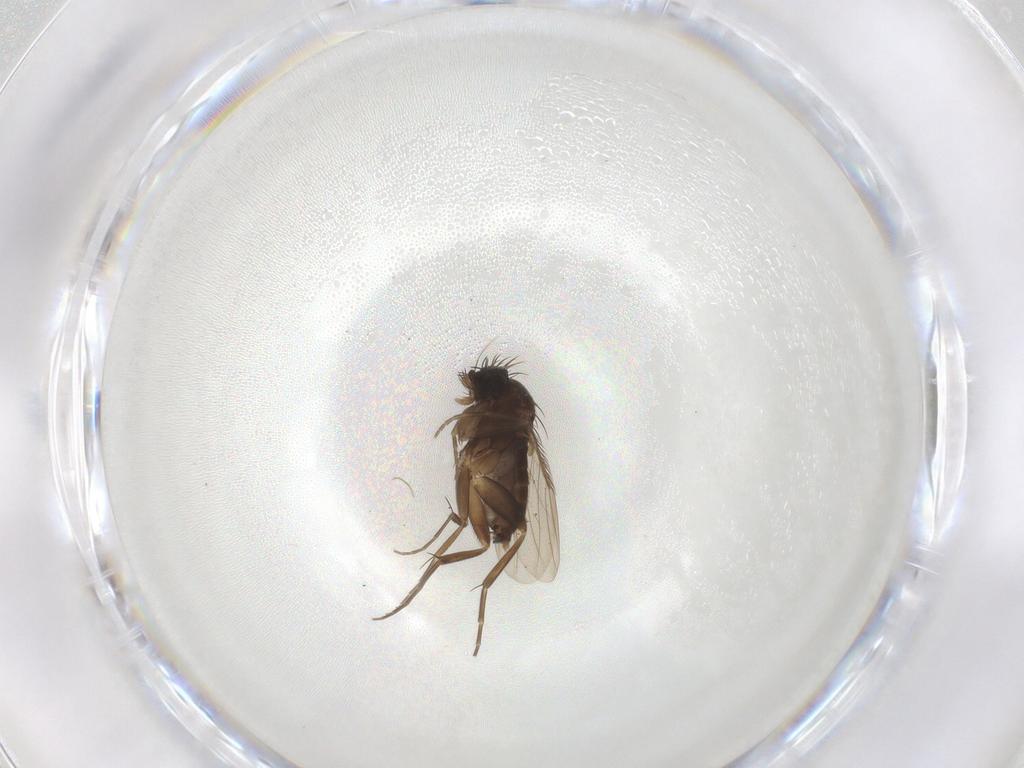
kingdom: Animalia
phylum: Arthropoda
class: Insecta
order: Diptera
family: Phoridae
